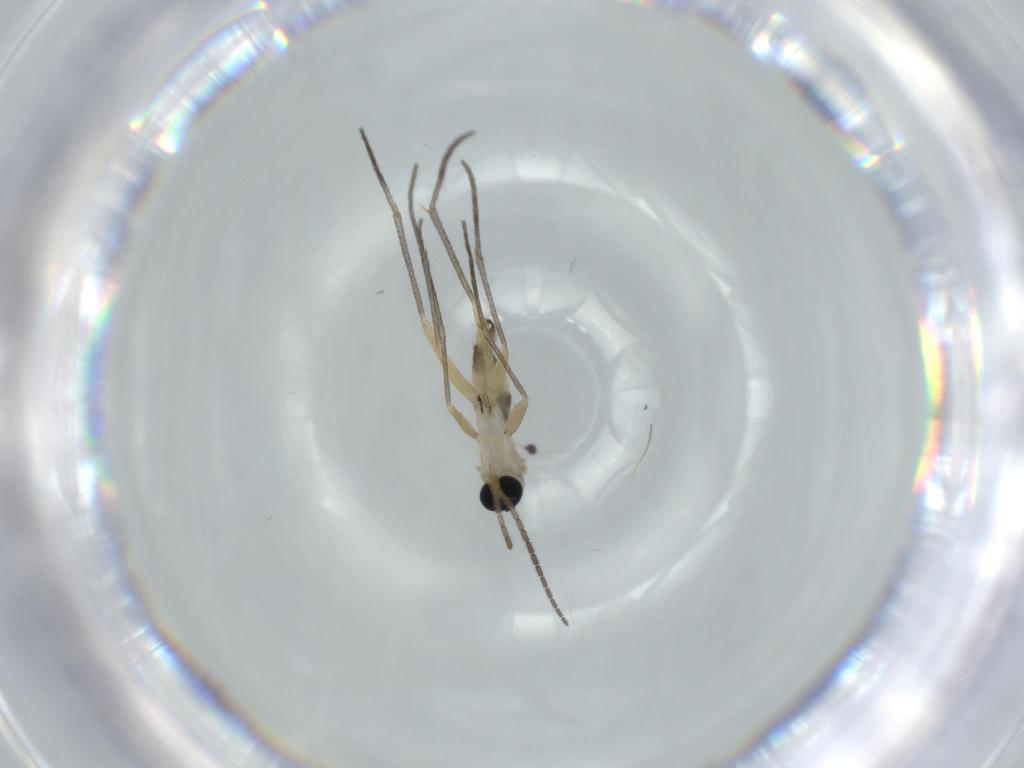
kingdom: Animalia
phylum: Arthropoda
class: Insecta
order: Diptera
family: Sciaridae
